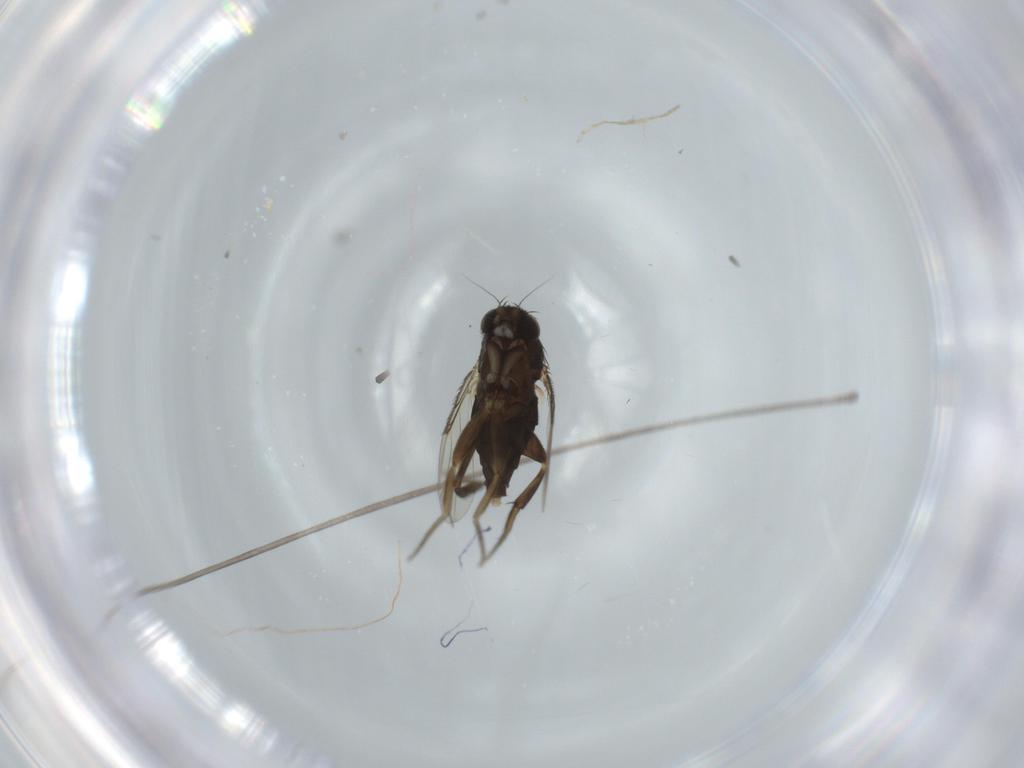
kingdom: Animalia
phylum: Arthropoda
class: Insecta
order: Diptera
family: Phoridae
